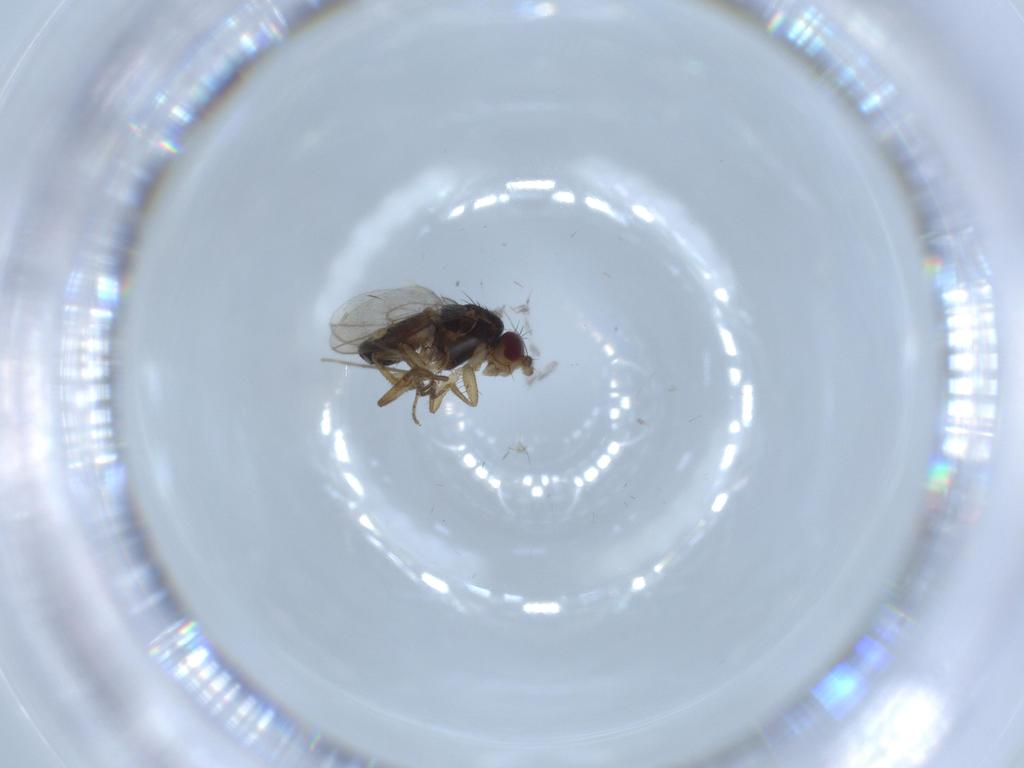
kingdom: Animalia
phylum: Arthropoda
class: Insecta
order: Diptera
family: Sphaeroceridae
